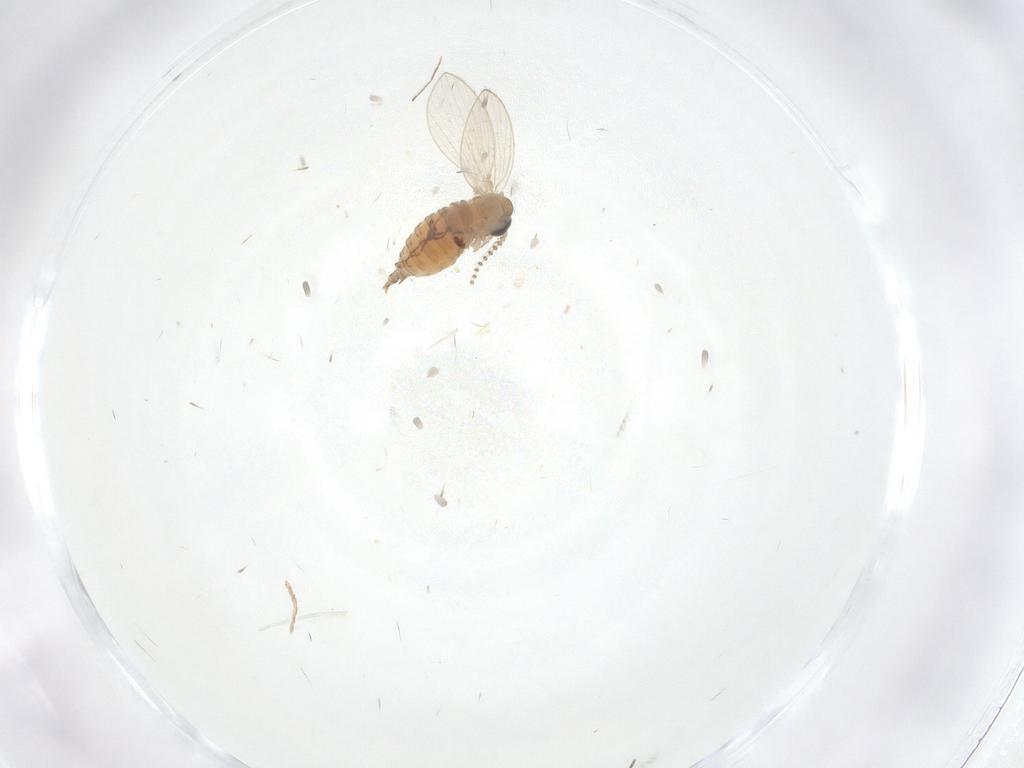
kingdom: Animalia
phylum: Arthropoda
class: Insecta
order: Diptera
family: Psychodidae
